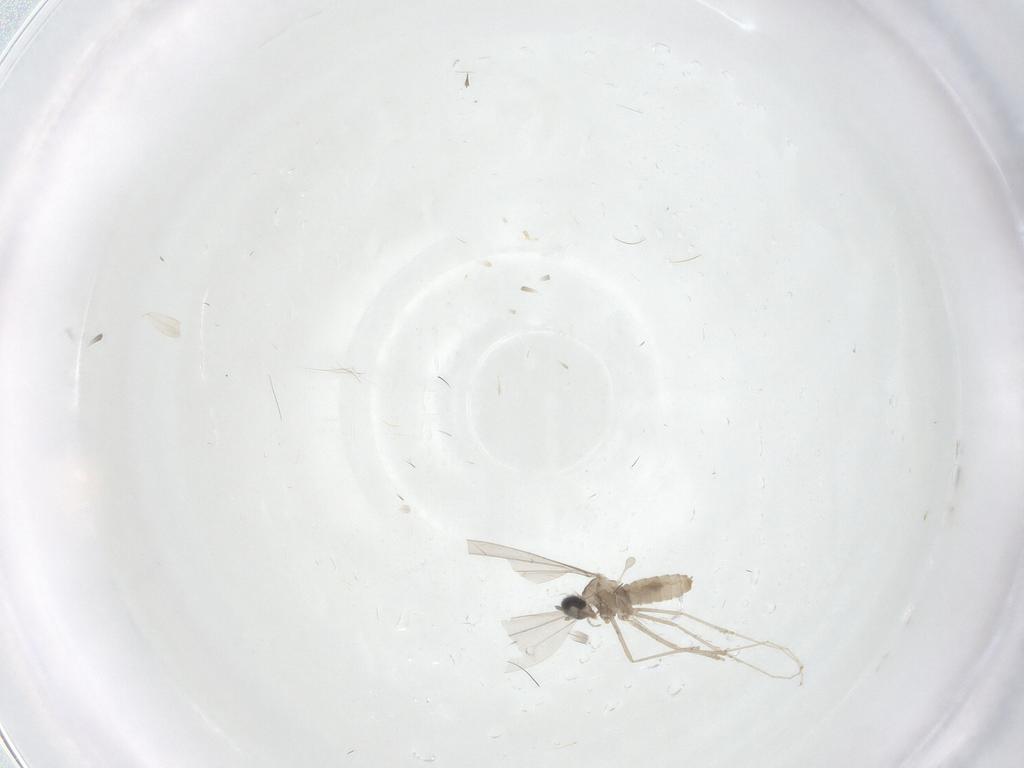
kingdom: Animalia
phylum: Arthropoda
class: Insecta
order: Diptera
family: Cecidomyiidae
